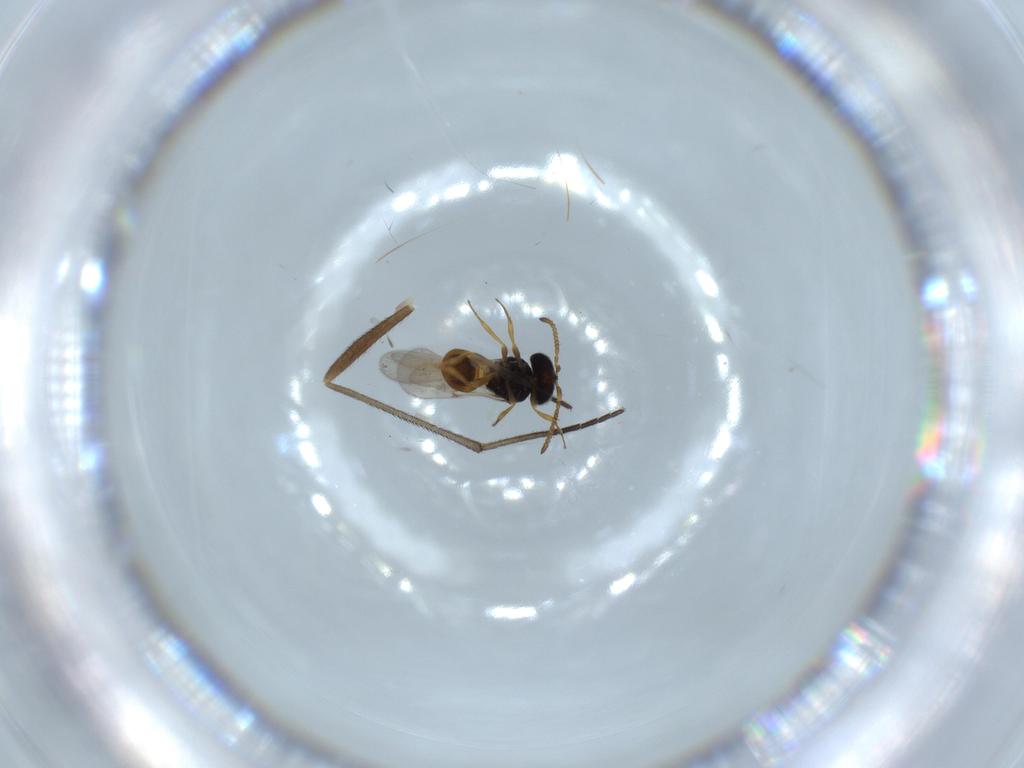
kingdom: Animalia
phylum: Arthropoda
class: Insecta
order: Hymenoptera
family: Scelionidae
